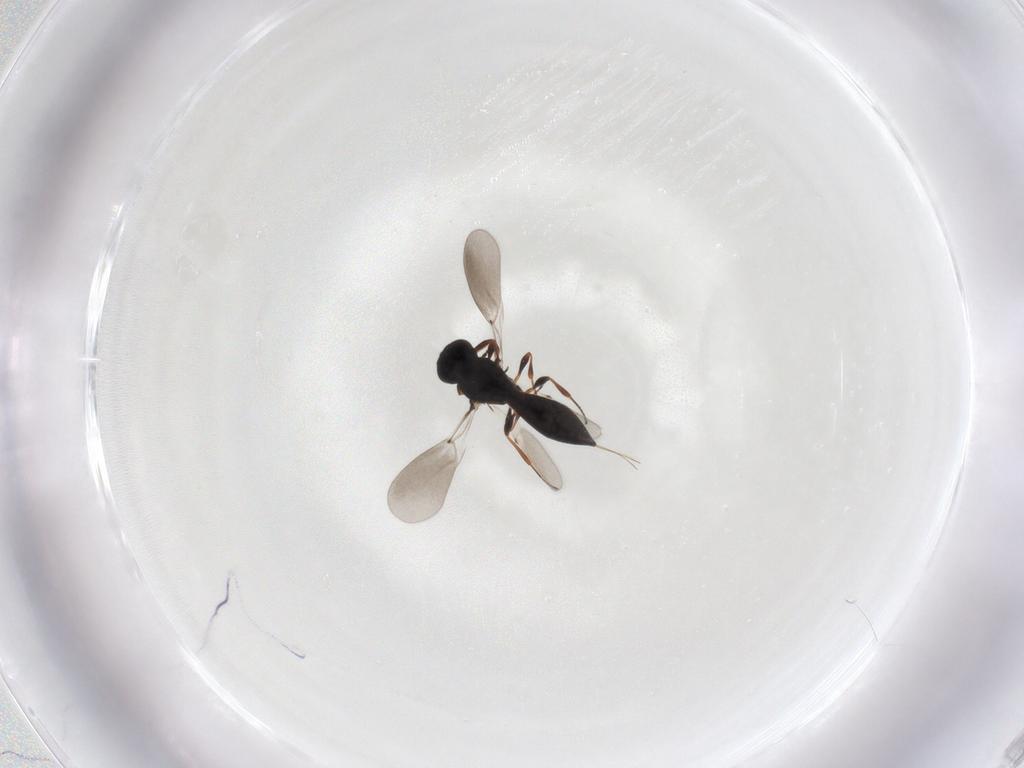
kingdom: Animalia
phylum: Arthropoda
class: Insecta
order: Hymenoptera
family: Platygastridae
